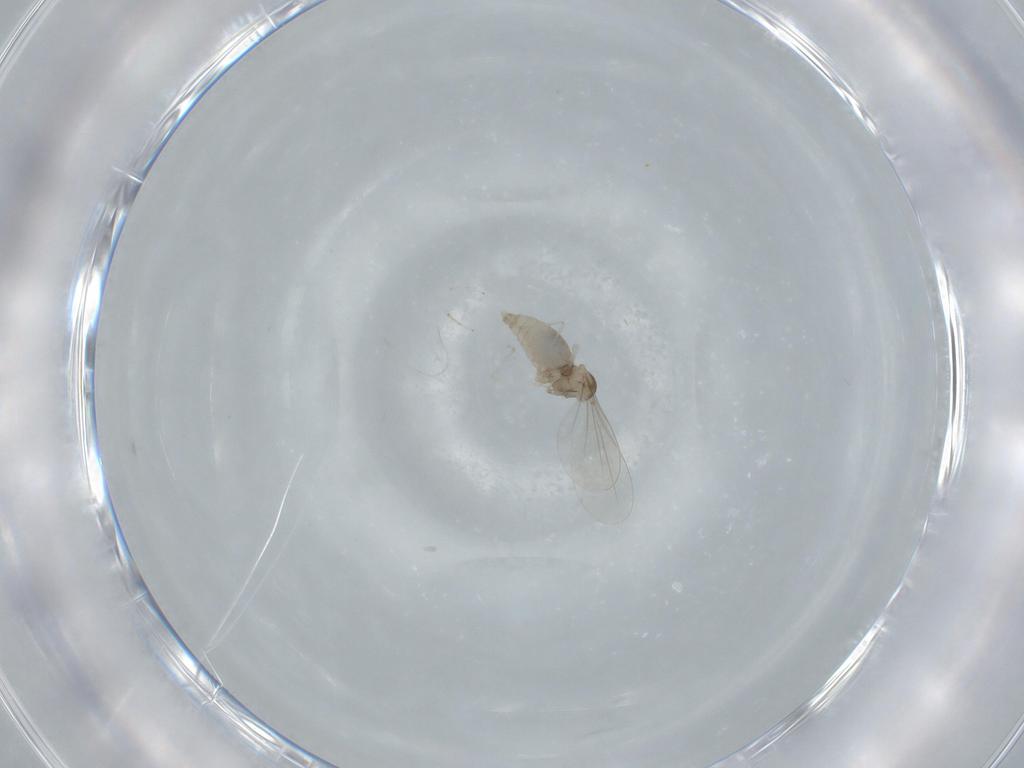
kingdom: Animalia
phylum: Arthropoda
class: Insecta
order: Diptera
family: Cecidomyiidae
